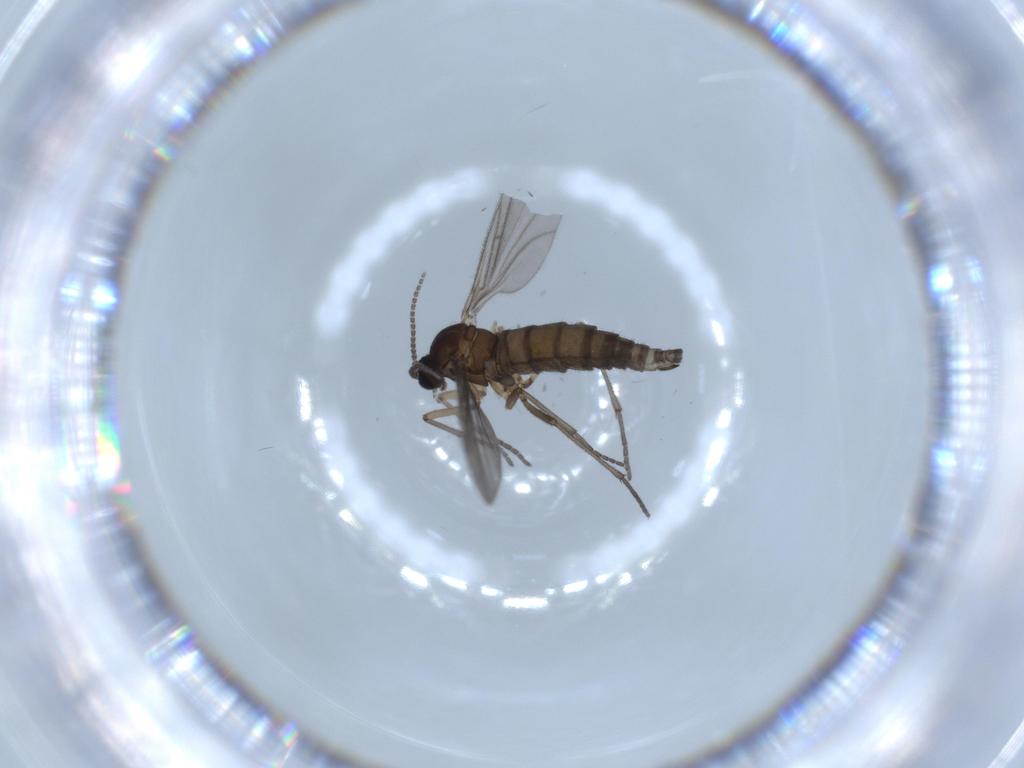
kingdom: Animalia
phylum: Arthropoda
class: Insecta
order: Diptera
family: Sciaridae
